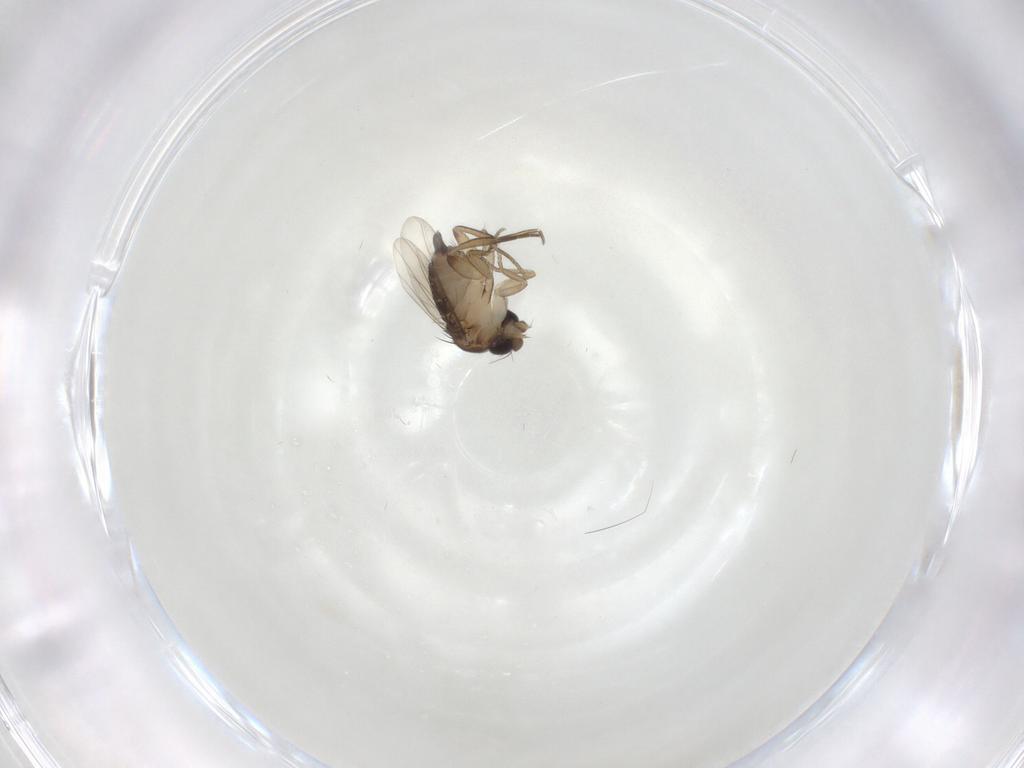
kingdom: Animalia
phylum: Arthropoda
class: Insecta
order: Diptera
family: Phoridae
